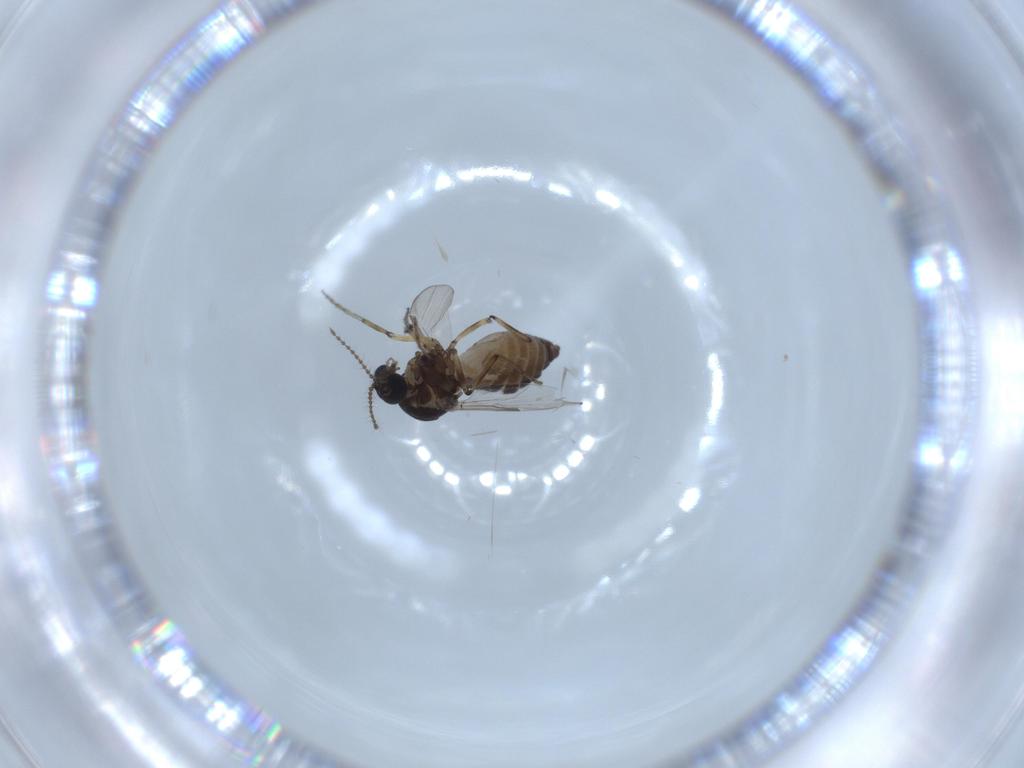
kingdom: Animalia
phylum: Arthropoda
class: Insecta
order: Diptera
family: Ceratopogonidae
